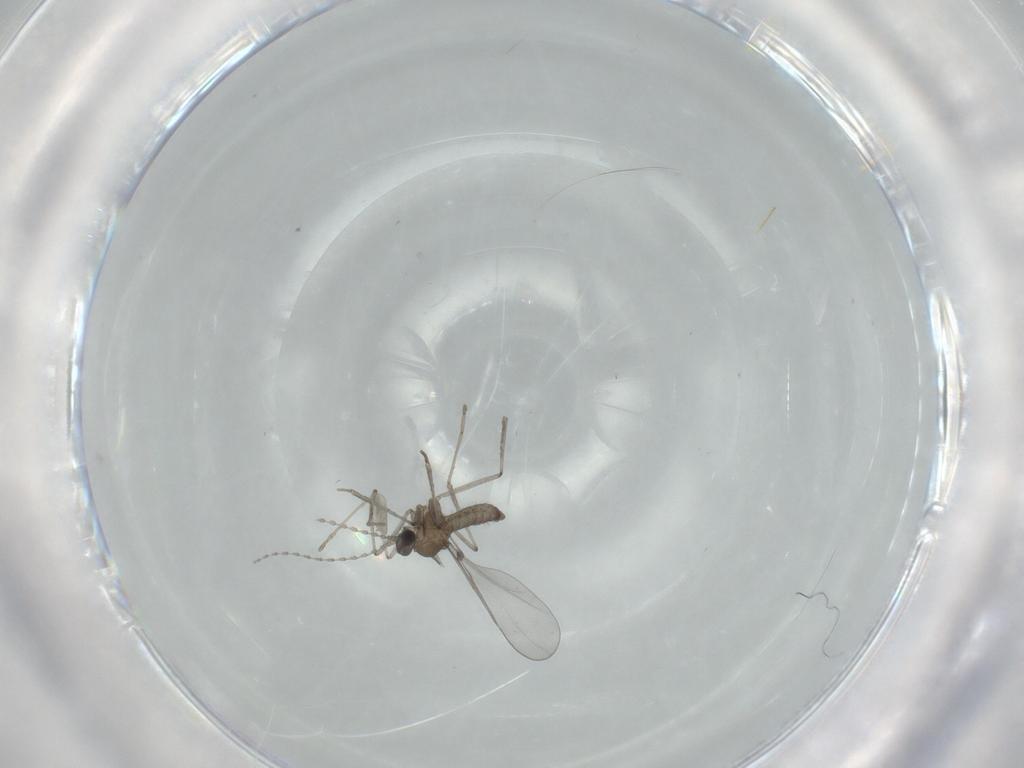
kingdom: Animalia
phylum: Arthropoda
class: Insecta
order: Diptera
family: Cecidomyiidae
